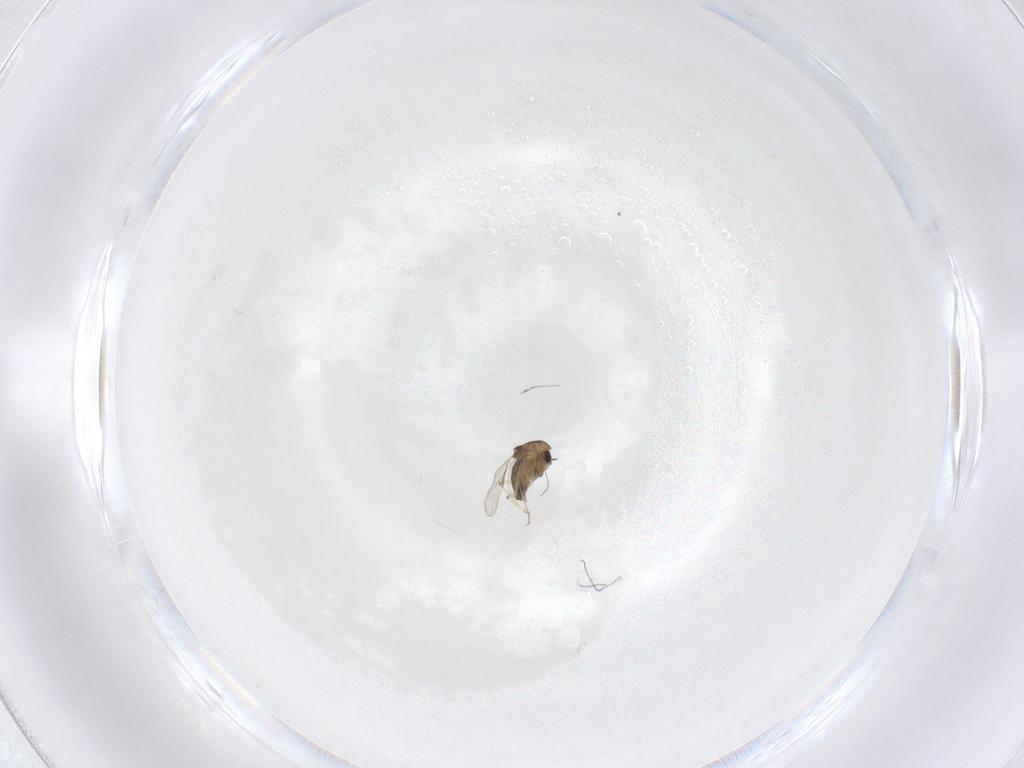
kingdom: Animalia
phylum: Arthropoda
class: Insecta
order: Diptera
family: Chironomidae
